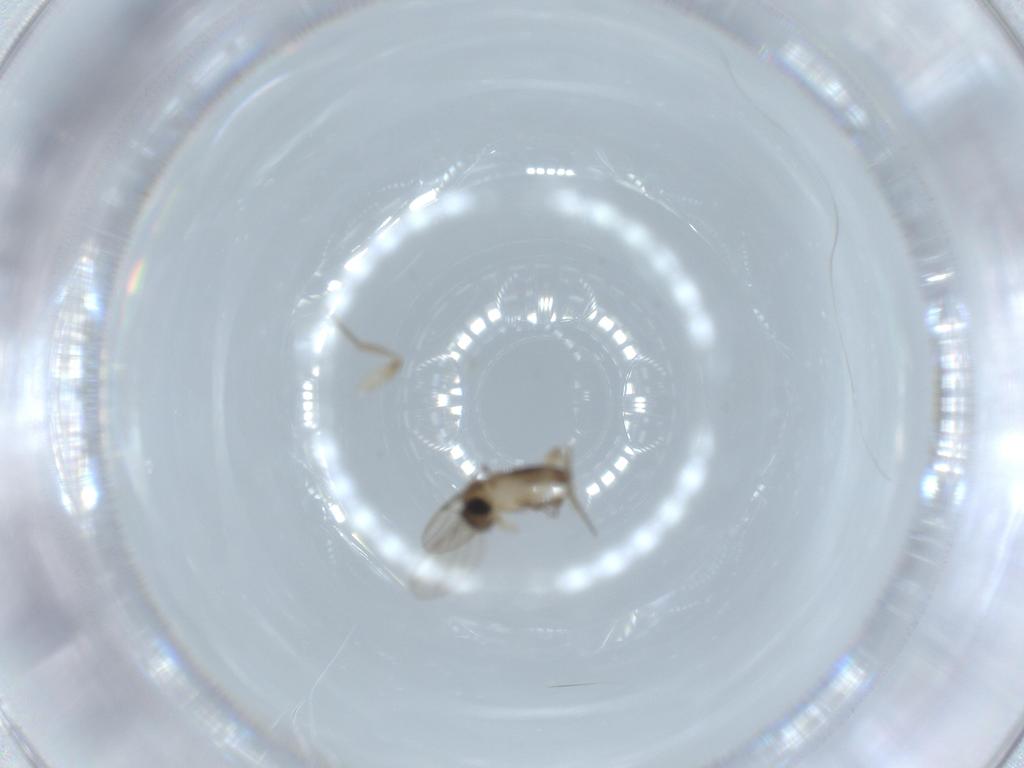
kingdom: Animalia
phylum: Arthropoda
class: Insecta
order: Diptera
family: Phoridae
